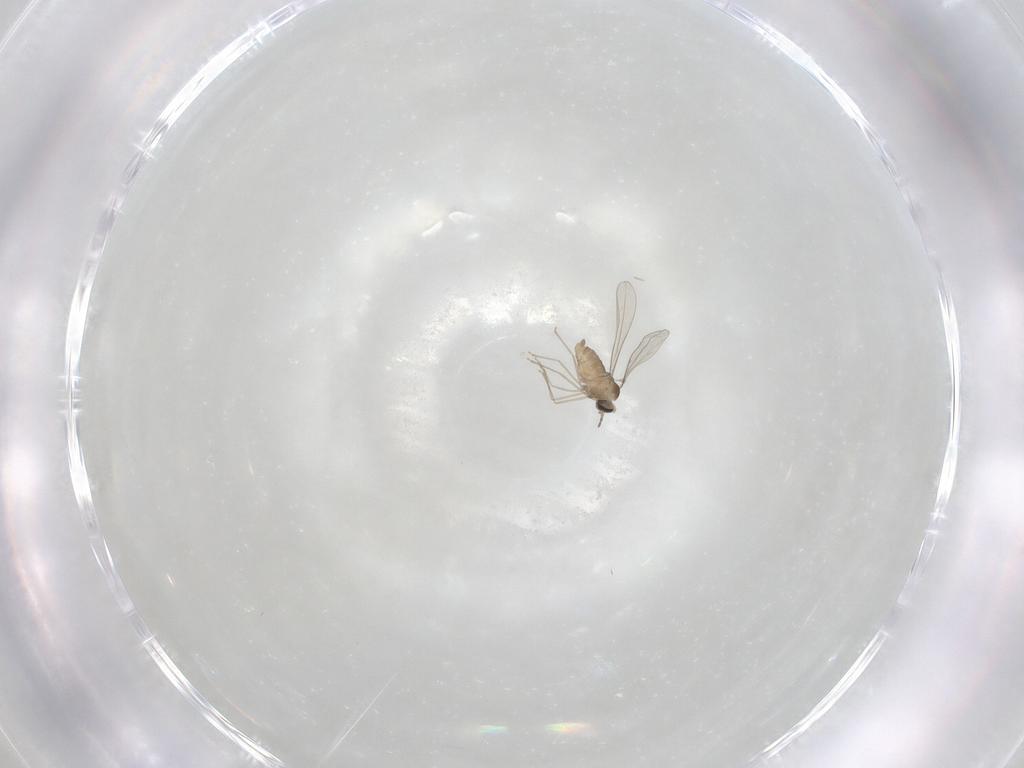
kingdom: Animalia
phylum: Arthropoda
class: Insecta
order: Diptera
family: Cecidomyiidae
